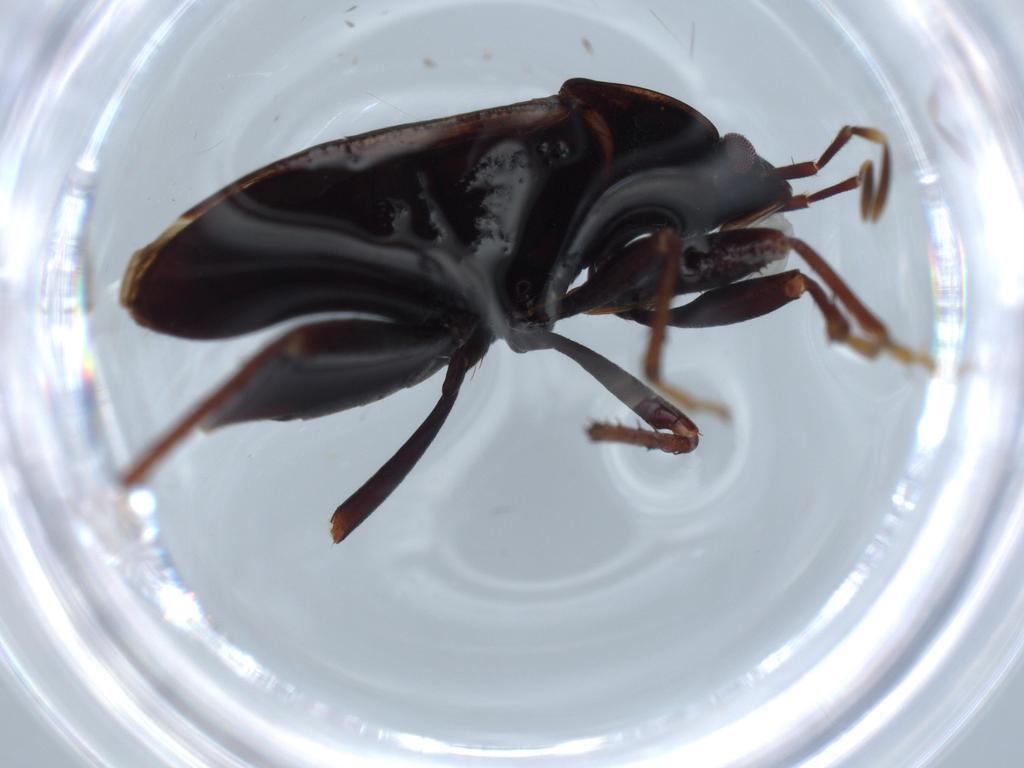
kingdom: Animalia
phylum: Arthropoda
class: Insecta
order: Hemiptera
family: Rhyparochromidae
